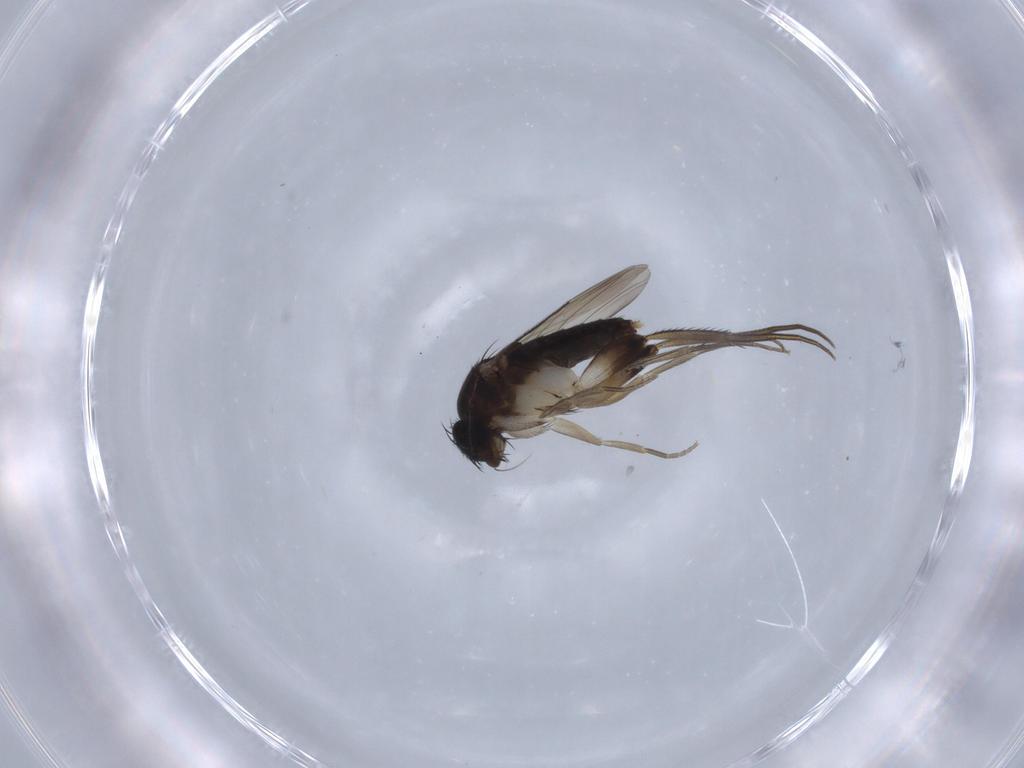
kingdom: Animalia
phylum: Arthropoda
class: Insecta
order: Diptera
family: Phoridae
